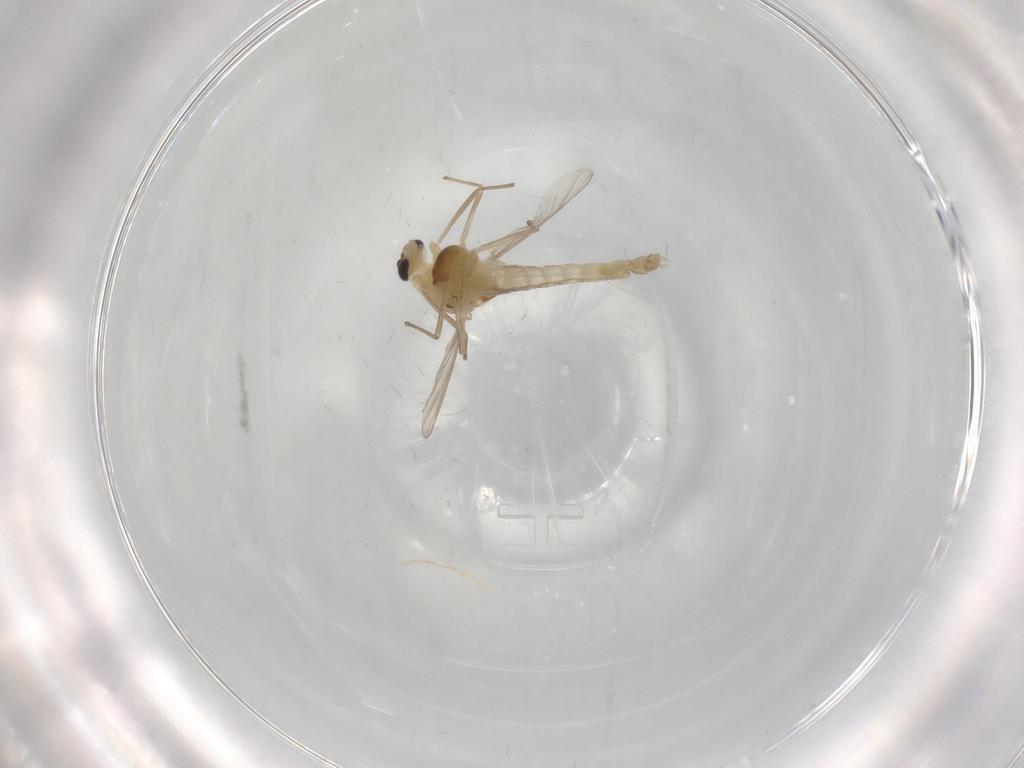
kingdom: Animalia
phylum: Arthropoda
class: Insecta
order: Diptera
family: Chironomidae
